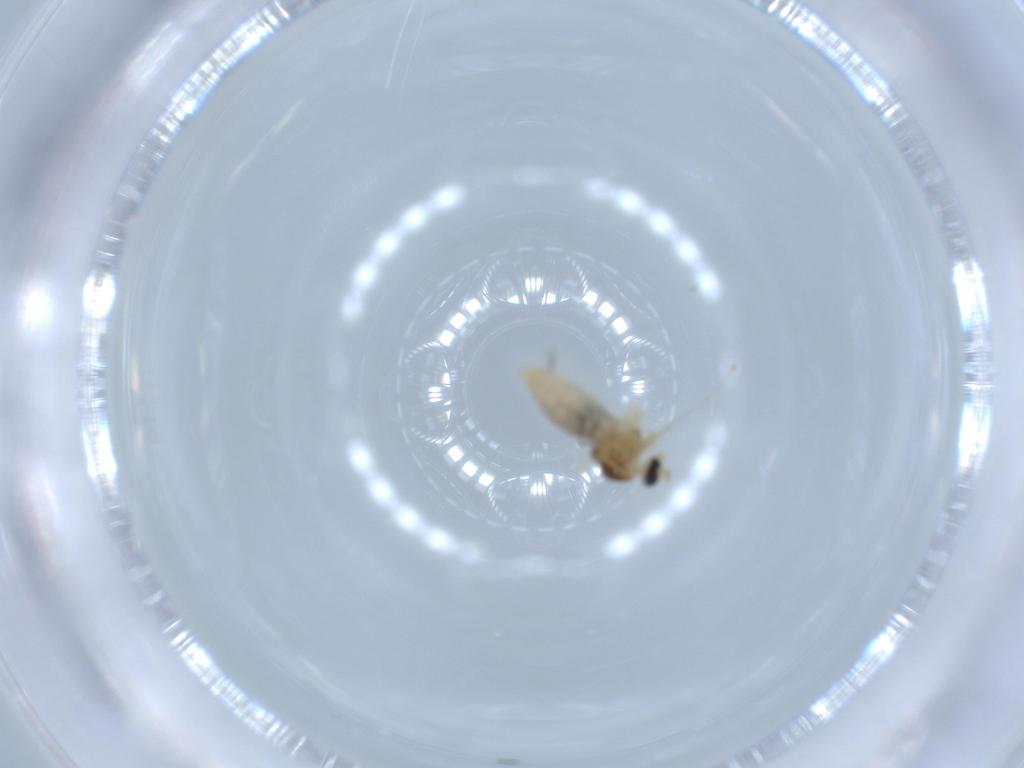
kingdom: Animalia
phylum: Arthropoda
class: Insecta
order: Diptera
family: Cecidomyiidae
